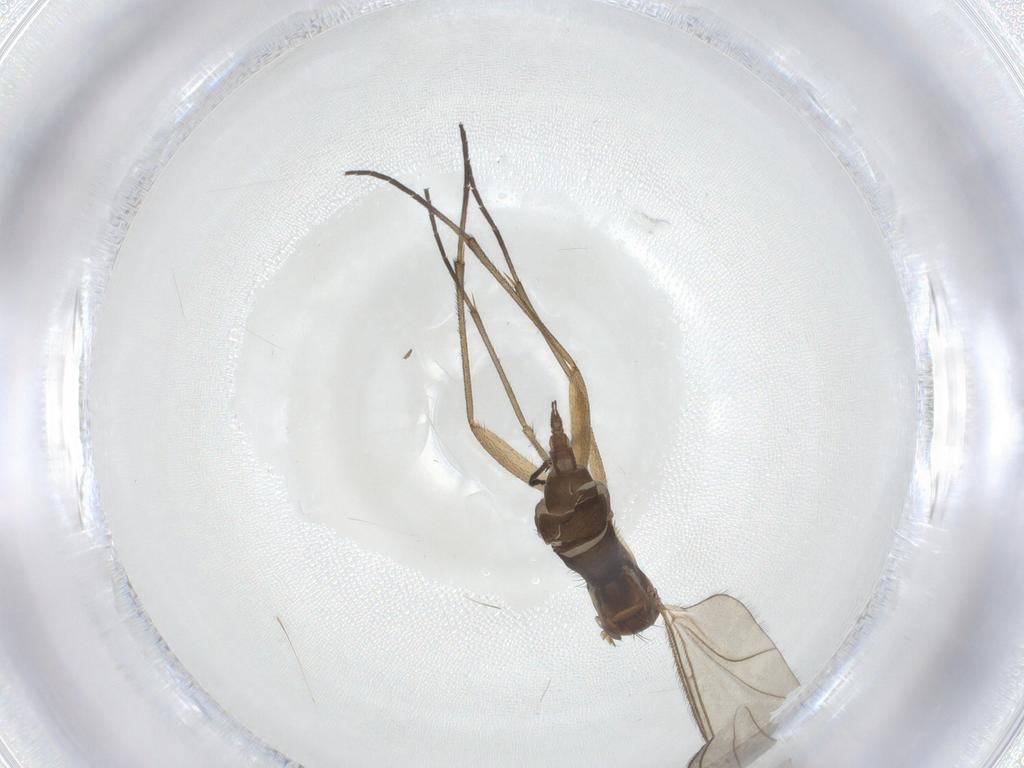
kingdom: Animalia
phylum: Arthropoda
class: Insecta
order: Diptera
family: Sciaridae
